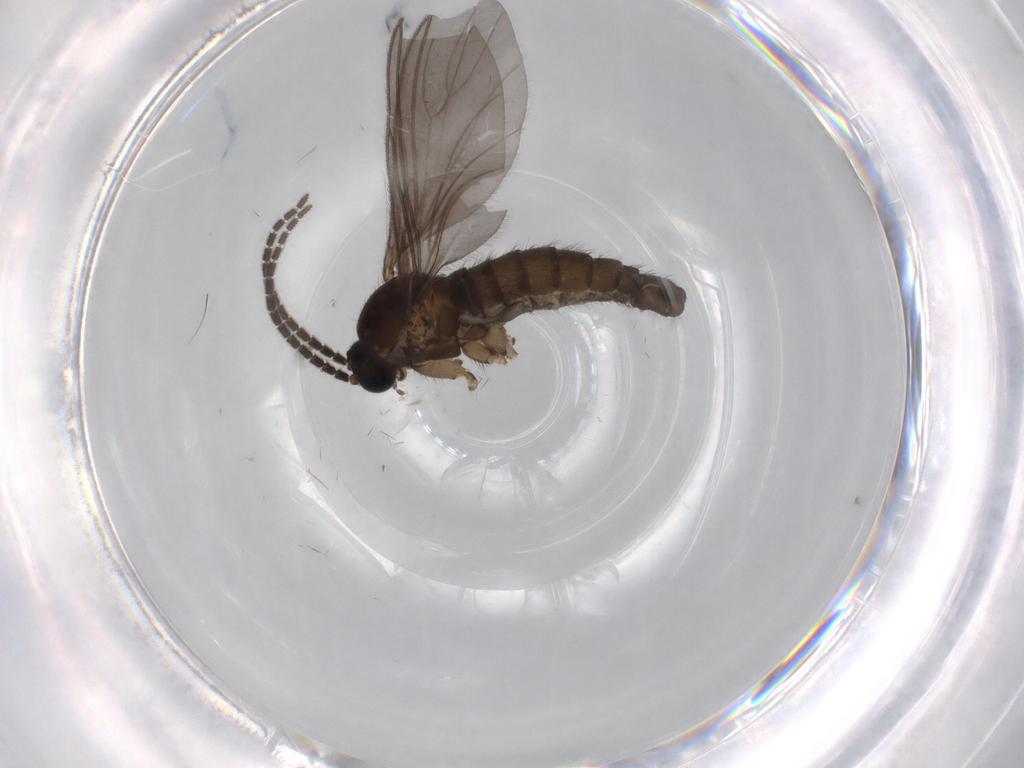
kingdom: Animalia
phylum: Arthropoda
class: Insecta
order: Diptera
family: Sciaridae
